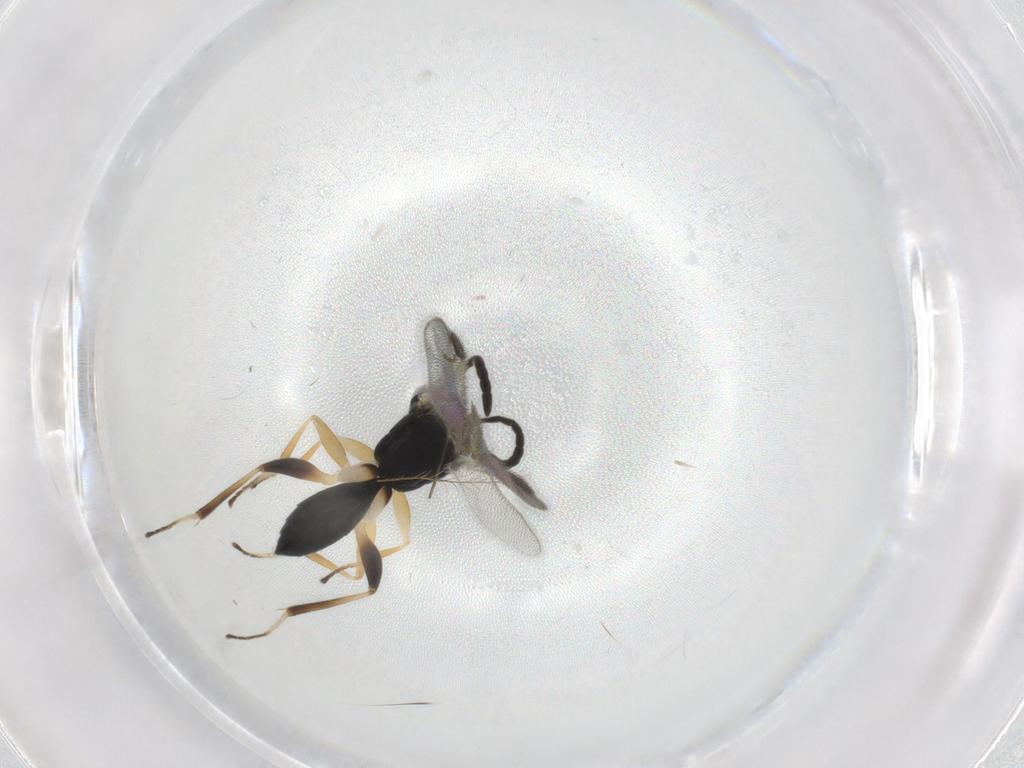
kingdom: Animalia
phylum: Arthropoda
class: Insecta
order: Hymenoptera
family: Dryinidae
